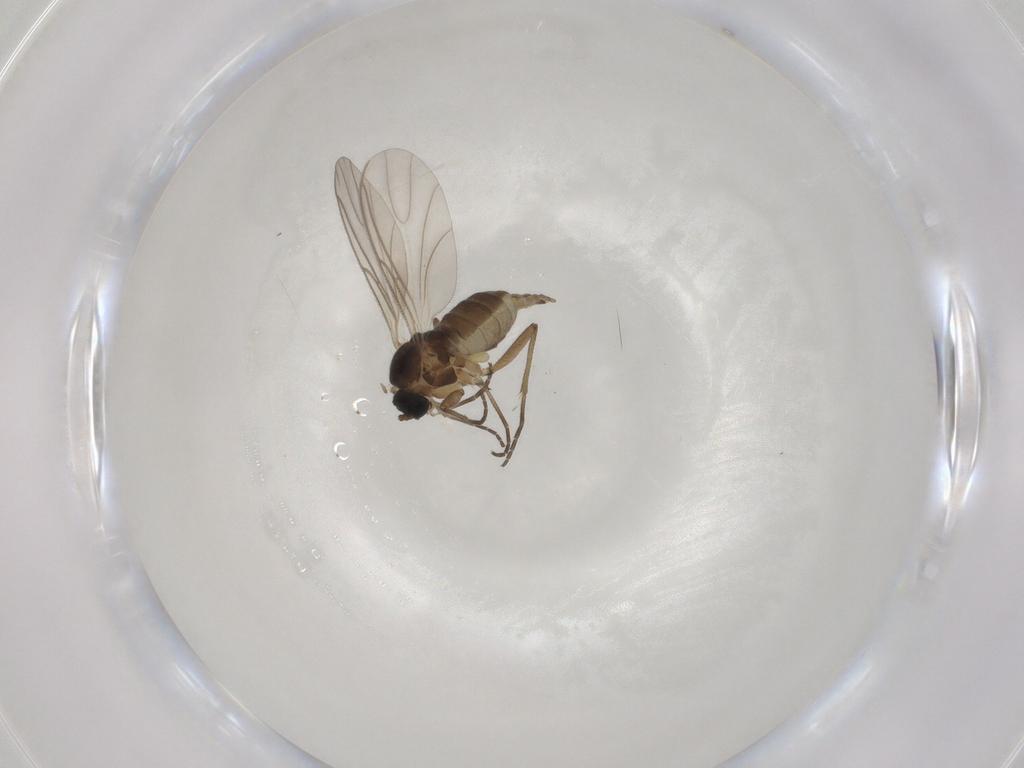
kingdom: Animalia
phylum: Arthropoda
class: Insecta
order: Diptera
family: Sciaridae
